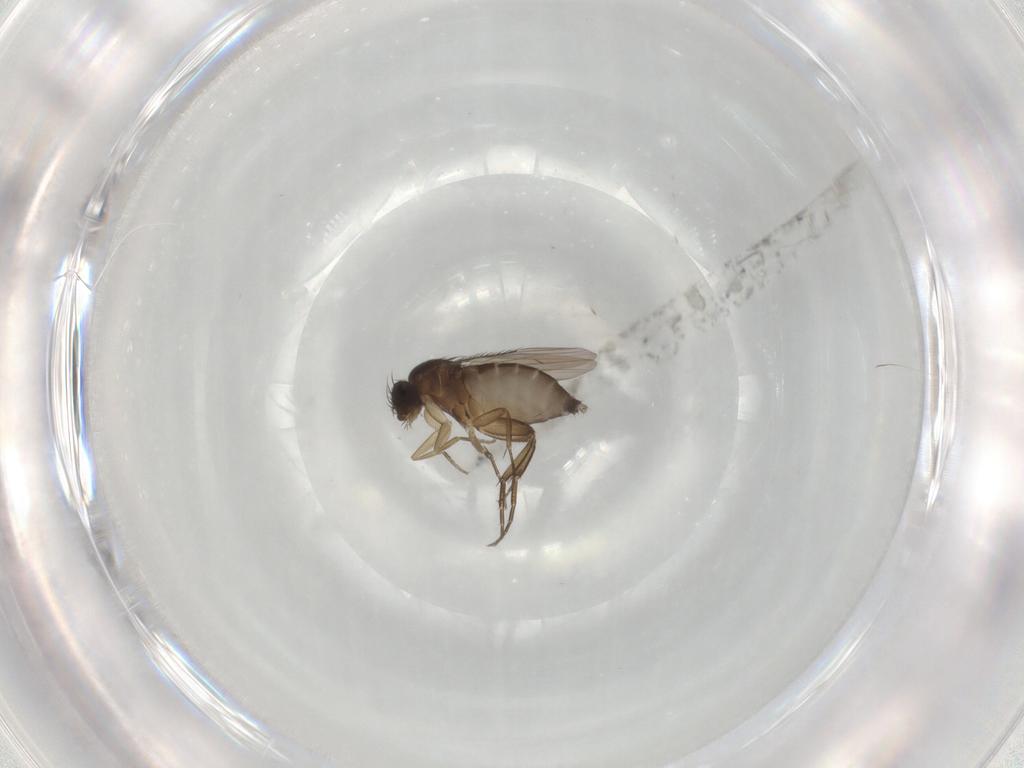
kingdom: Animalia
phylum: Arthropoda
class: Insecta
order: Diptera
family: Phoridae
